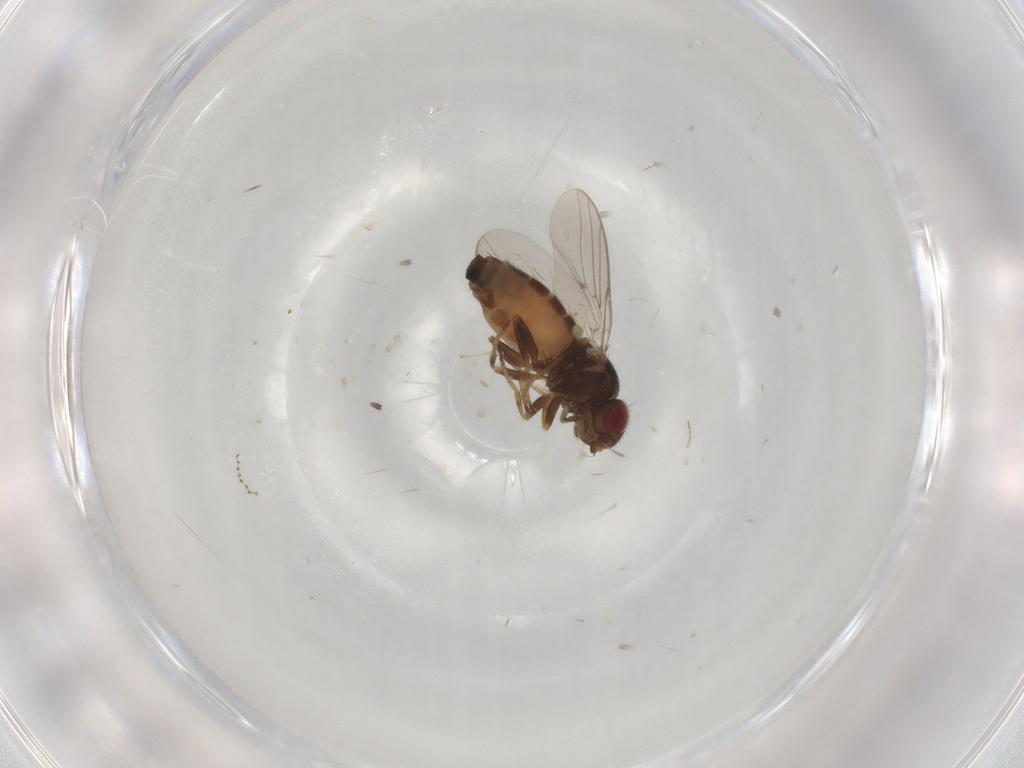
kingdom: Animalia
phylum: Arthropoda
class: Insecta
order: Diptera
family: Chloropidae
